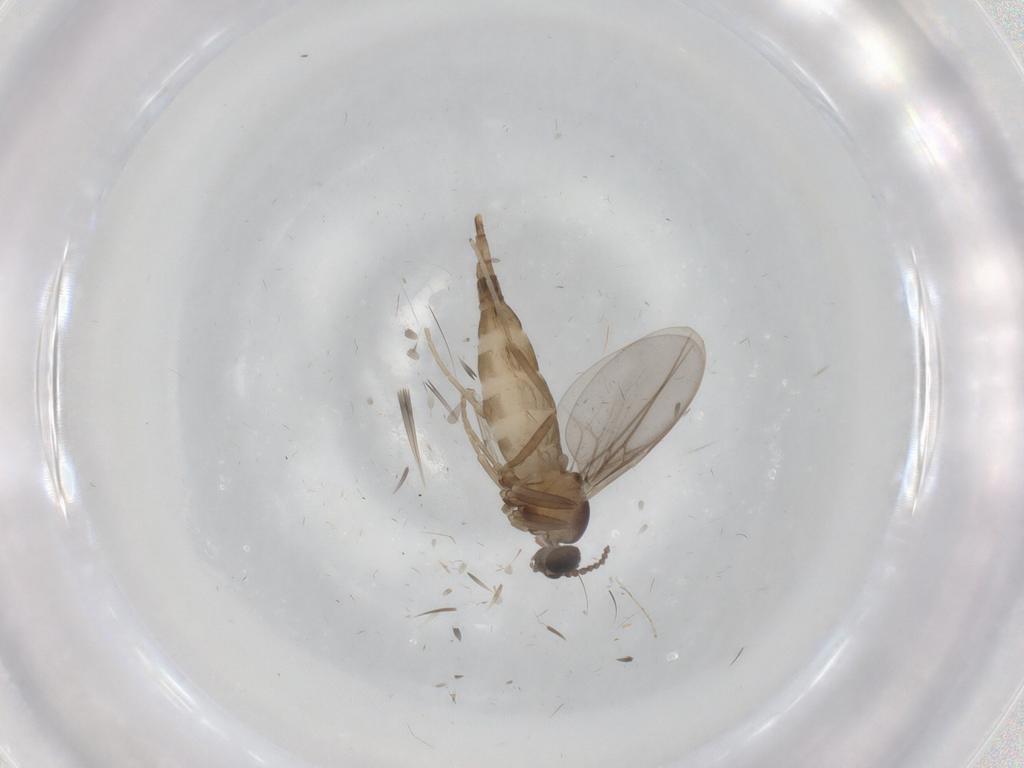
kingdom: Animalia
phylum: Arthropoda
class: Insecta
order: Diptera
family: Cecidomyiidae
